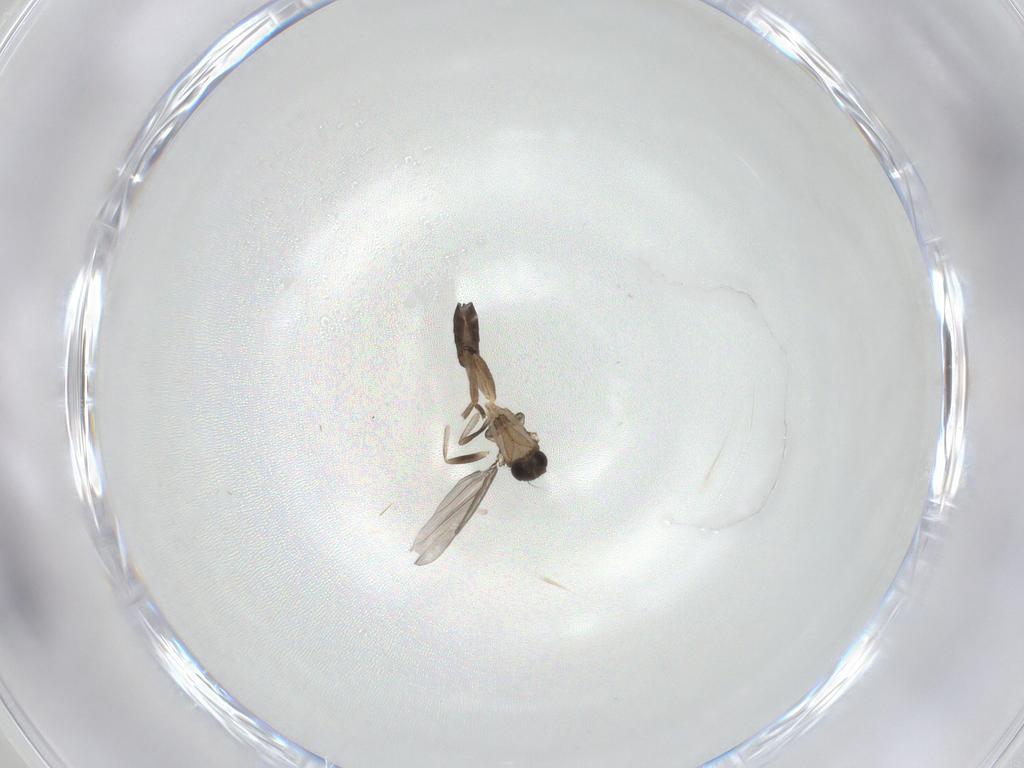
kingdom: Animalia
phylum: Arthropoda
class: Insecta
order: Diptera
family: Phoridae
